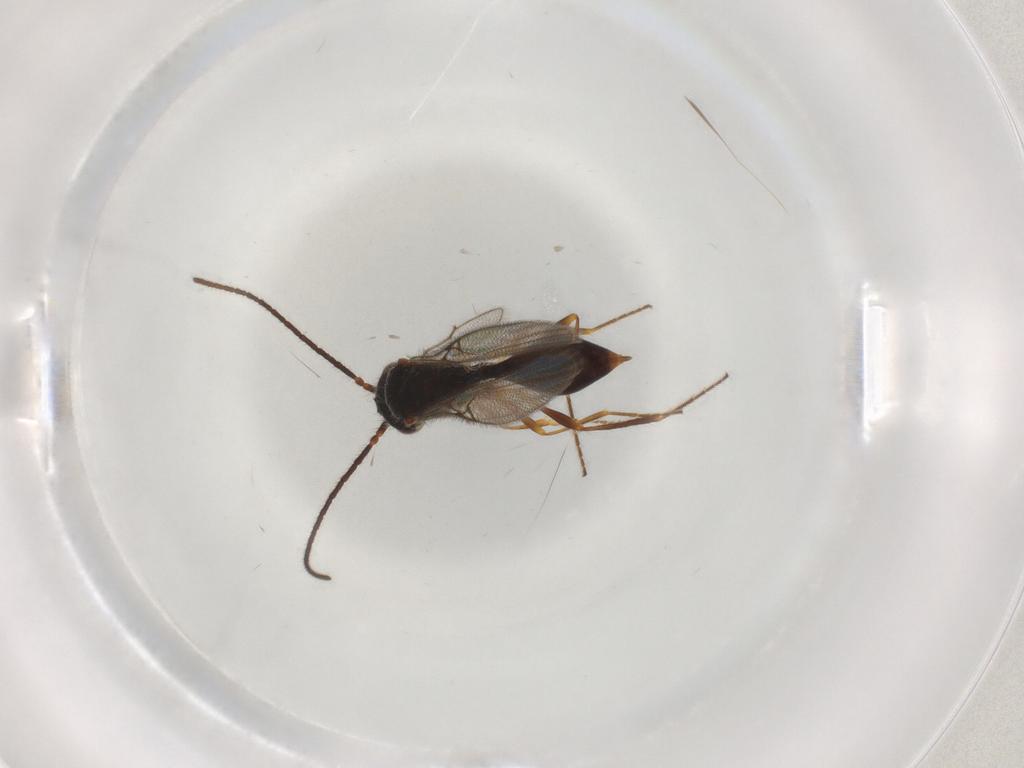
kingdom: Animalia
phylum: Arthropoda
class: Insecta
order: Hymenoptera
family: Diapriidae
